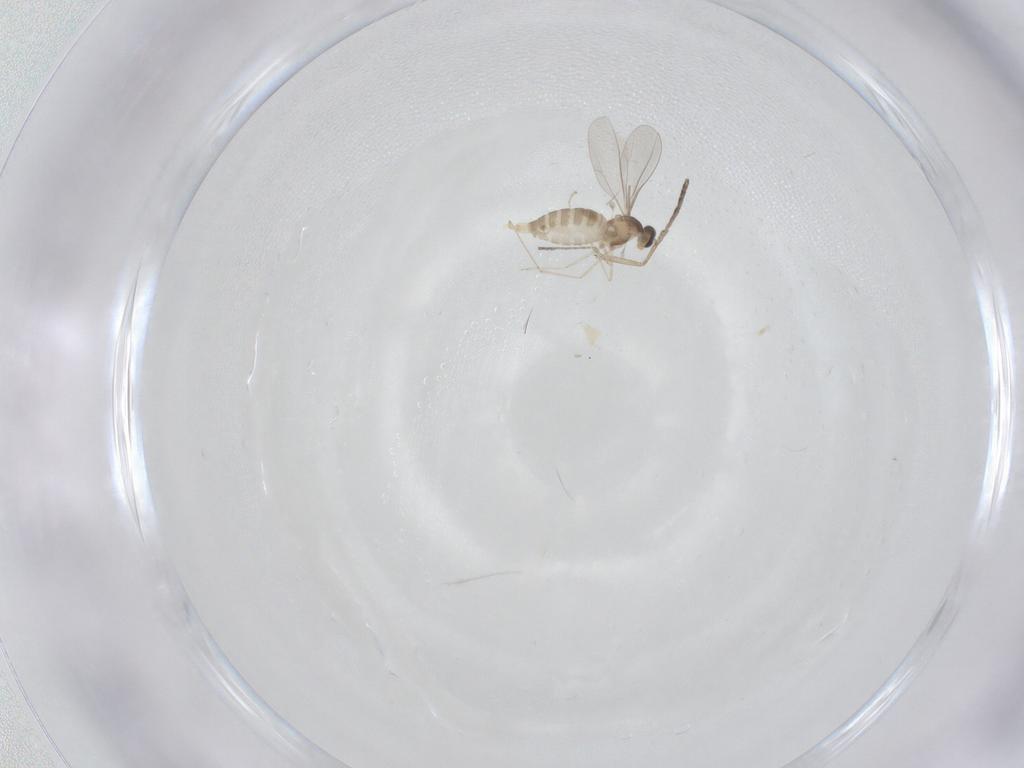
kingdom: Animalia
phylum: Arthropoda
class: Insecta
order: Diptera
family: Cecidomyiidae
